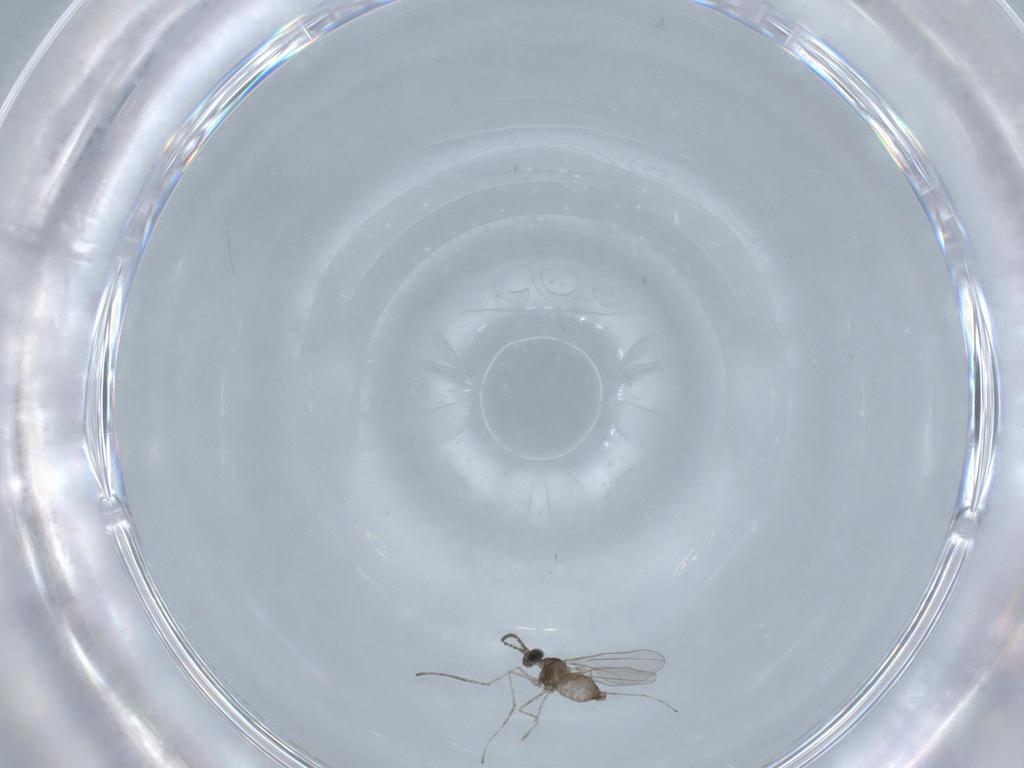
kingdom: Animalia
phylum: Arthropoda
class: Insecta
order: Diptera
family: Cecidomyiidae
